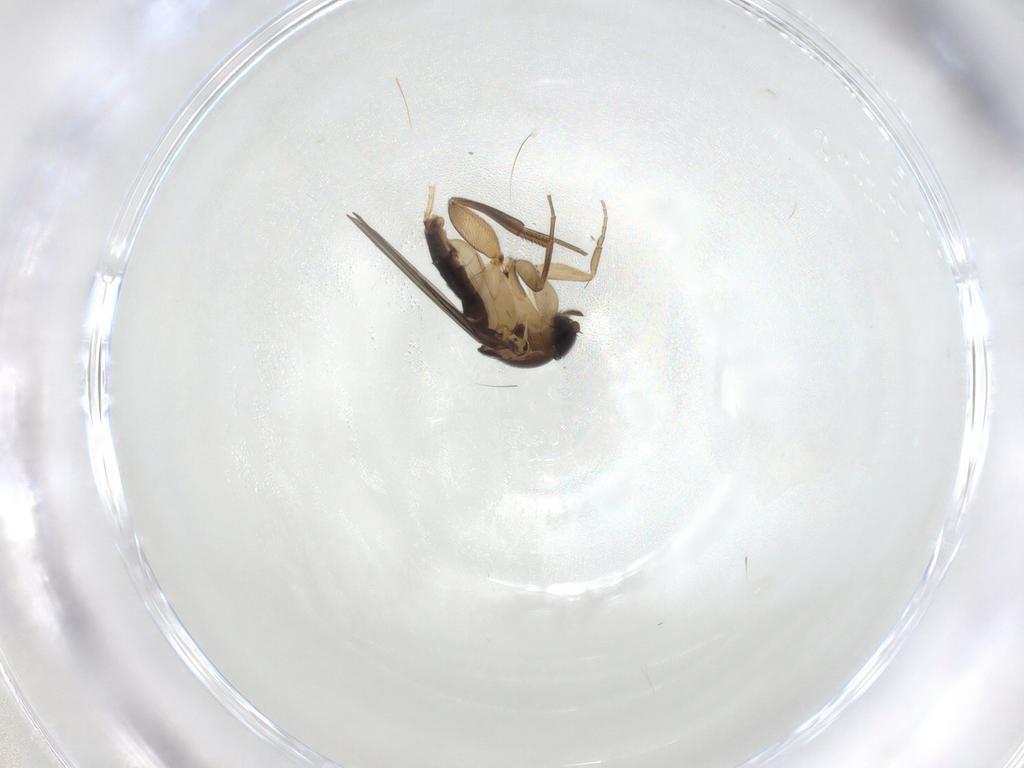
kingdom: Animalia
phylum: Arthropoda
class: Insecta
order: Diptera
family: Phoridae
